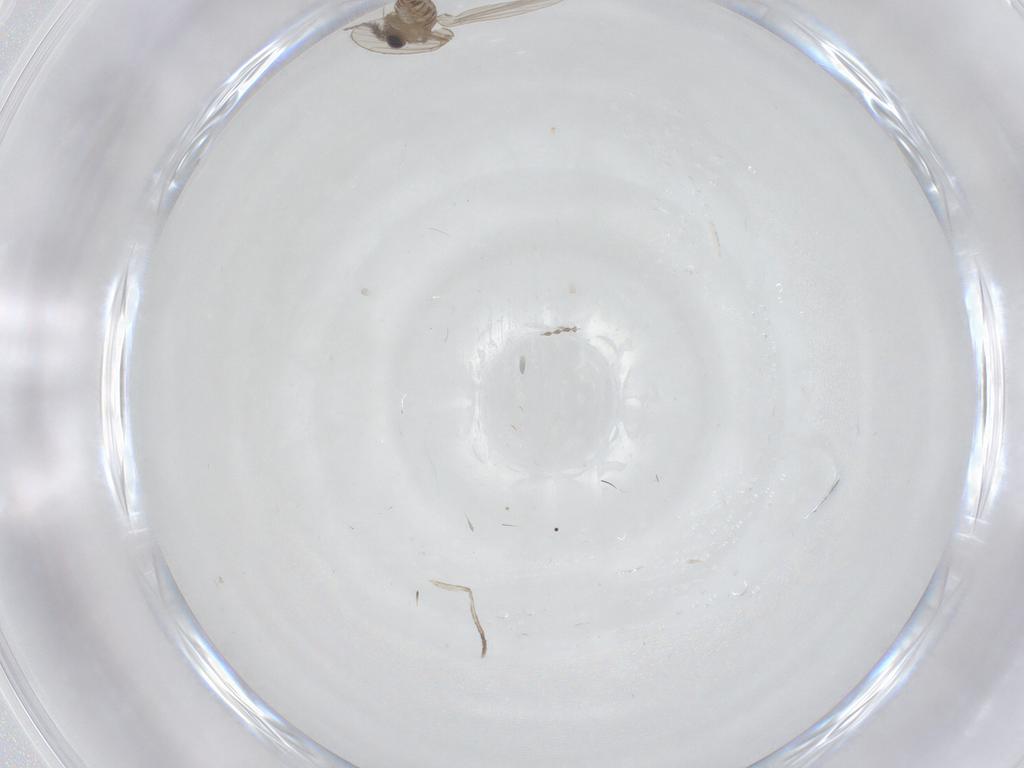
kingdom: Animalia
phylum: Arthropoda
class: Insecta
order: Diptera
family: Cecidomyiidae
